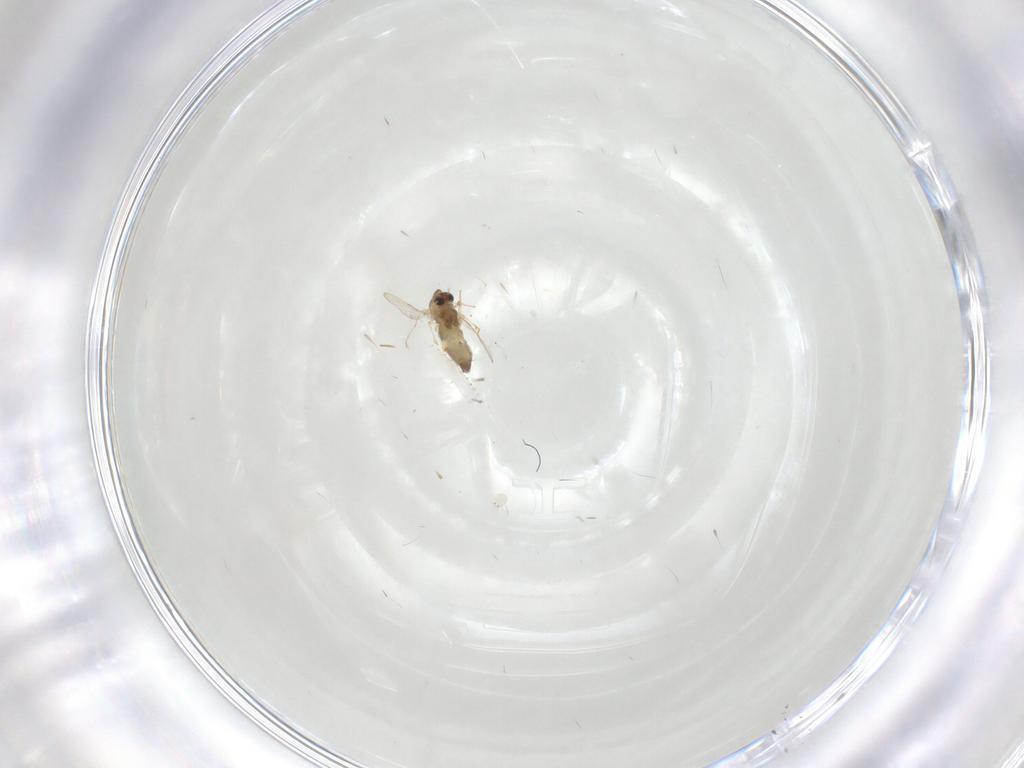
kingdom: Animalia
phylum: Arthropoda
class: Insecta
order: Diptera
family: Chironomidae
